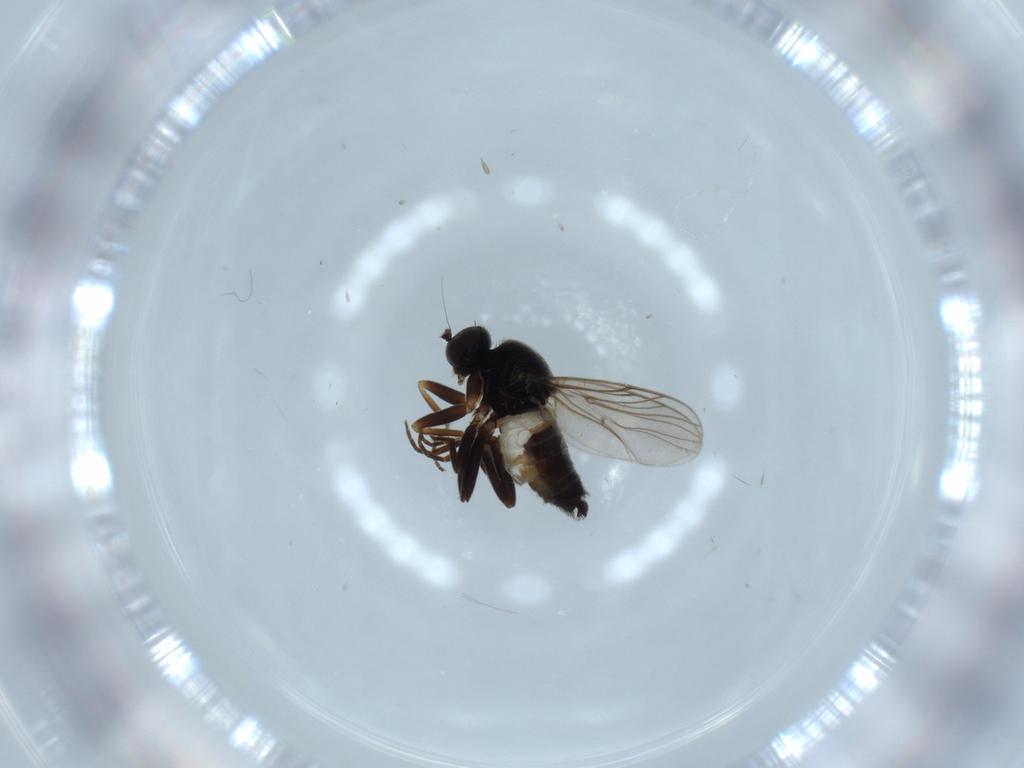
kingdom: Animalia
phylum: Arthropoda
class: Insecta
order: Diptera
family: Hybotidae
